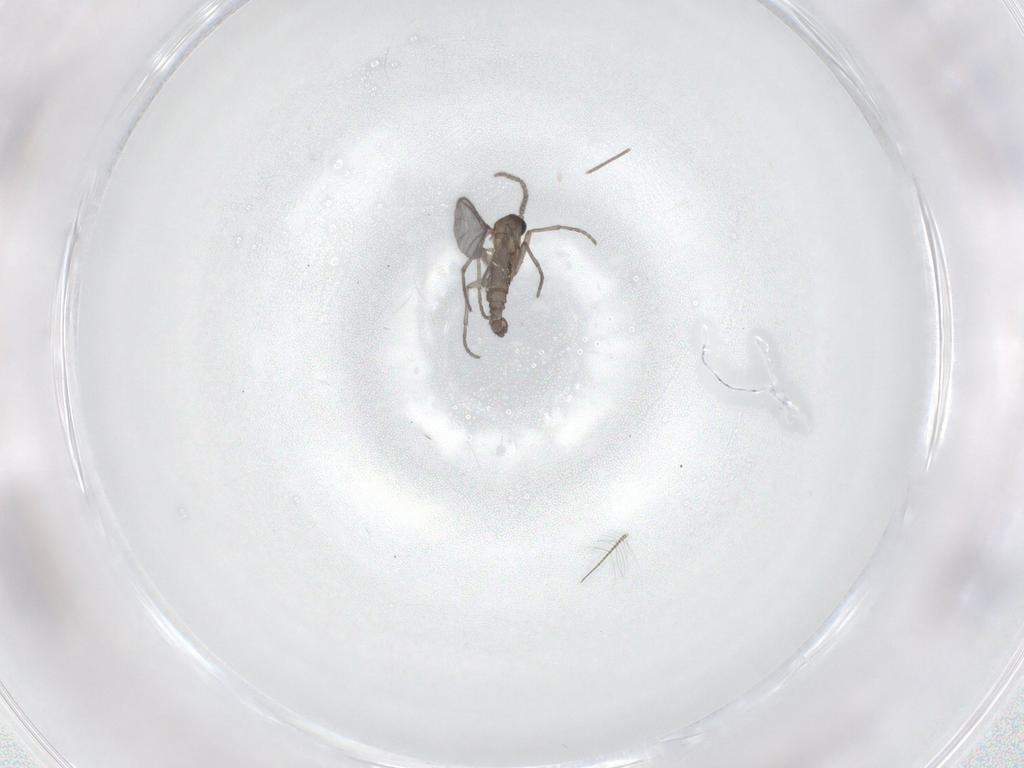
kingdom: Animalia
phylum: Arthropoda
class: Insecta
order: Diptera
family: Sciaridae
